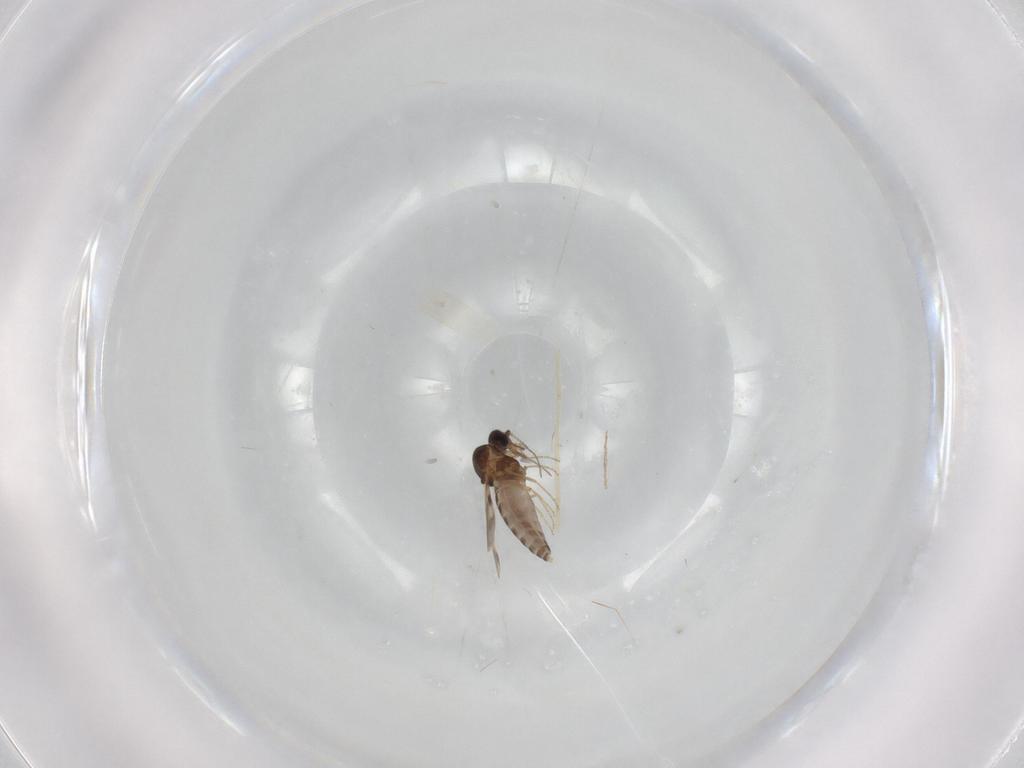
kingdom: Animalia
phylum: Arthropoda
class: Insecta
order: Diptera
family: Ceratopogonidae
